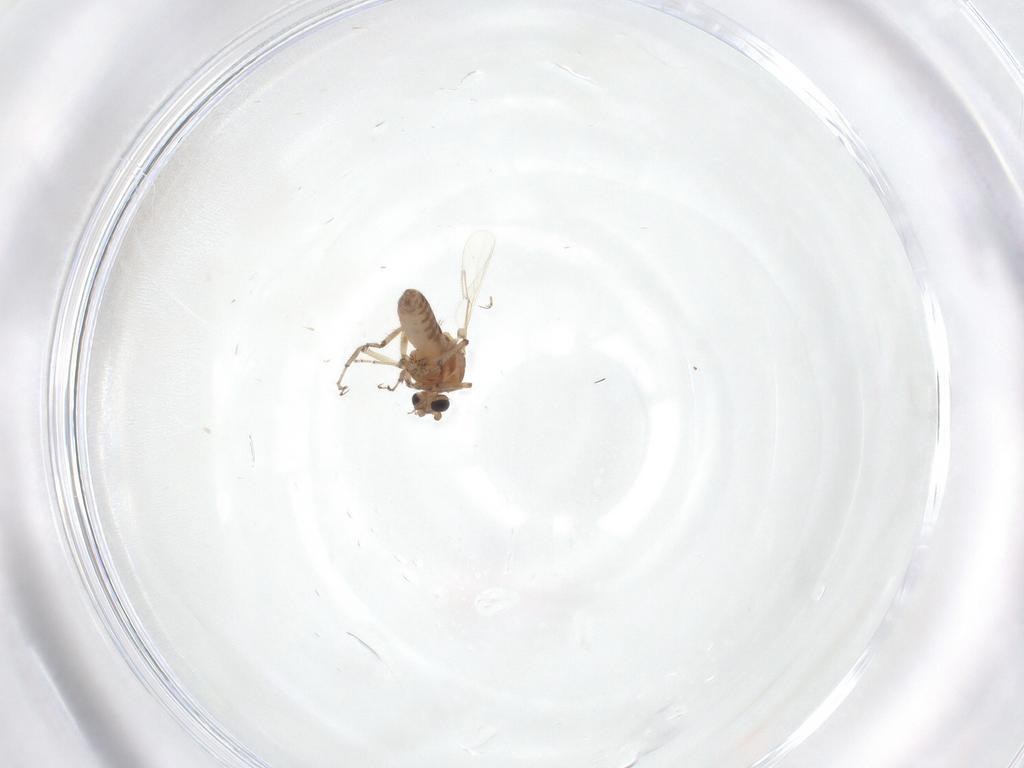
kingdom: Animalia
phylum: Arthropoda
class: Insecta
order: Diptera
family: Ceratopogonidae
